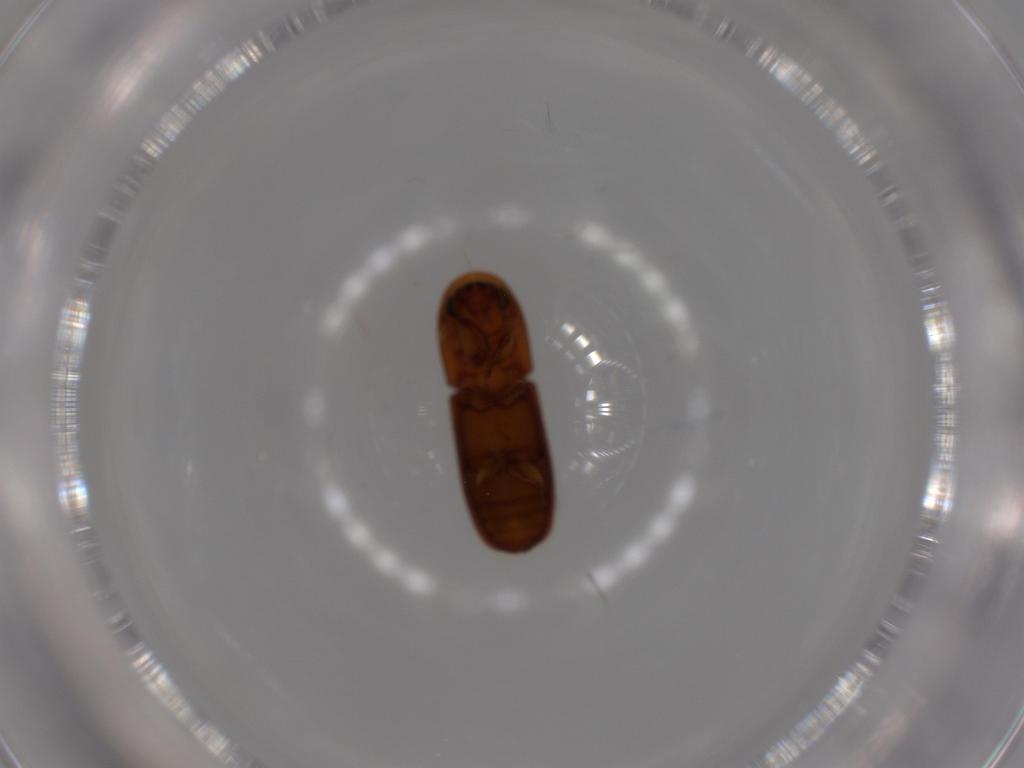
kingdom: Animalia
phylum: Arthropoda
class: Insecta
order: Coleoptera
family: Curculionidae
